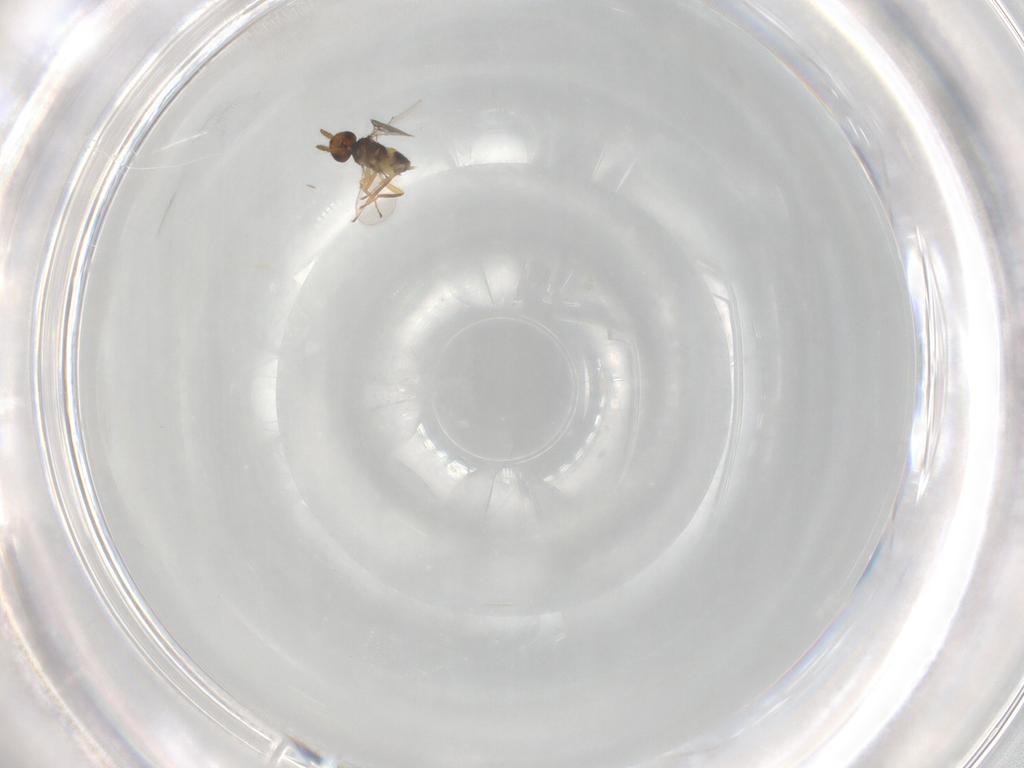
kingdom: Animalia
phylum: Arthropoda
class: Insecta
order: Hymenoptera
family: Eulophidae
